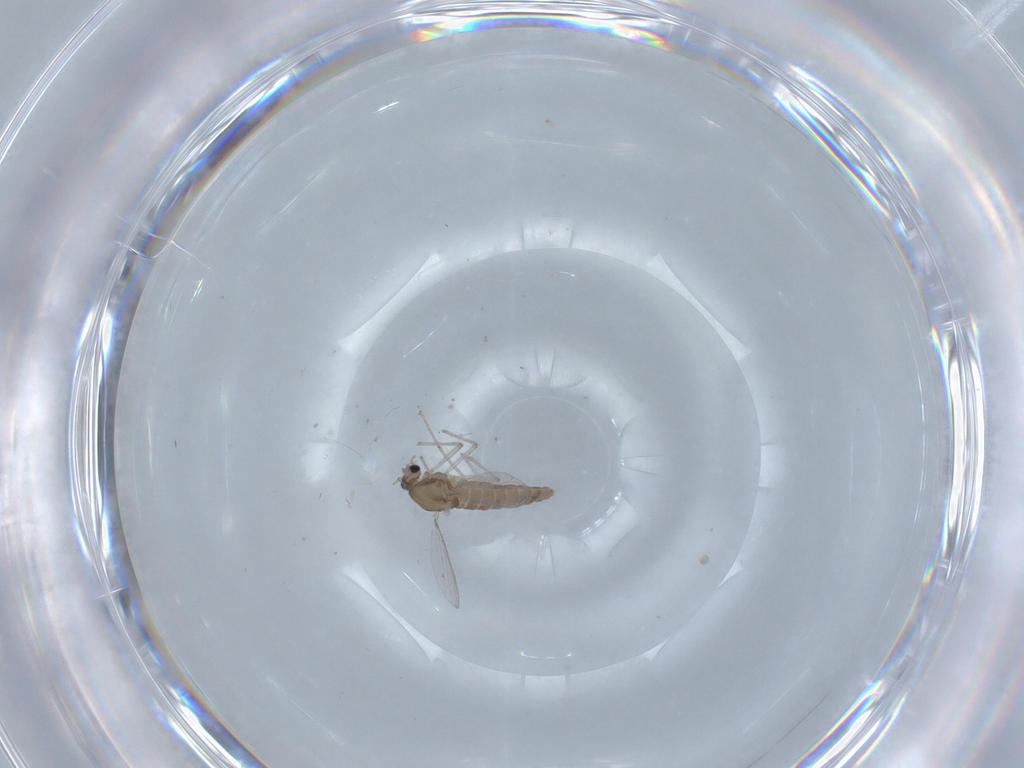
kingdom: Animalia
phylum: Arthropoda
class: Insecta
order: Diptera
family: Chironomidae
